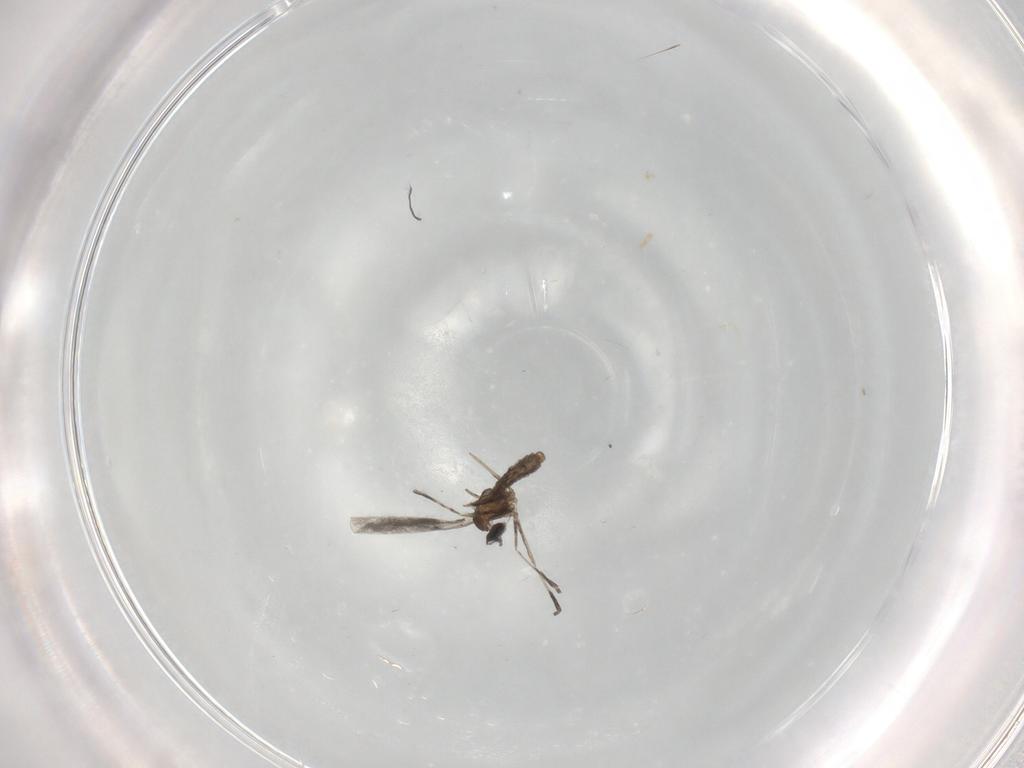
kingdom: Animalia
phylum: Arthropoda
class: Insecta
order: Diptera
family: Cecidomyiidae
